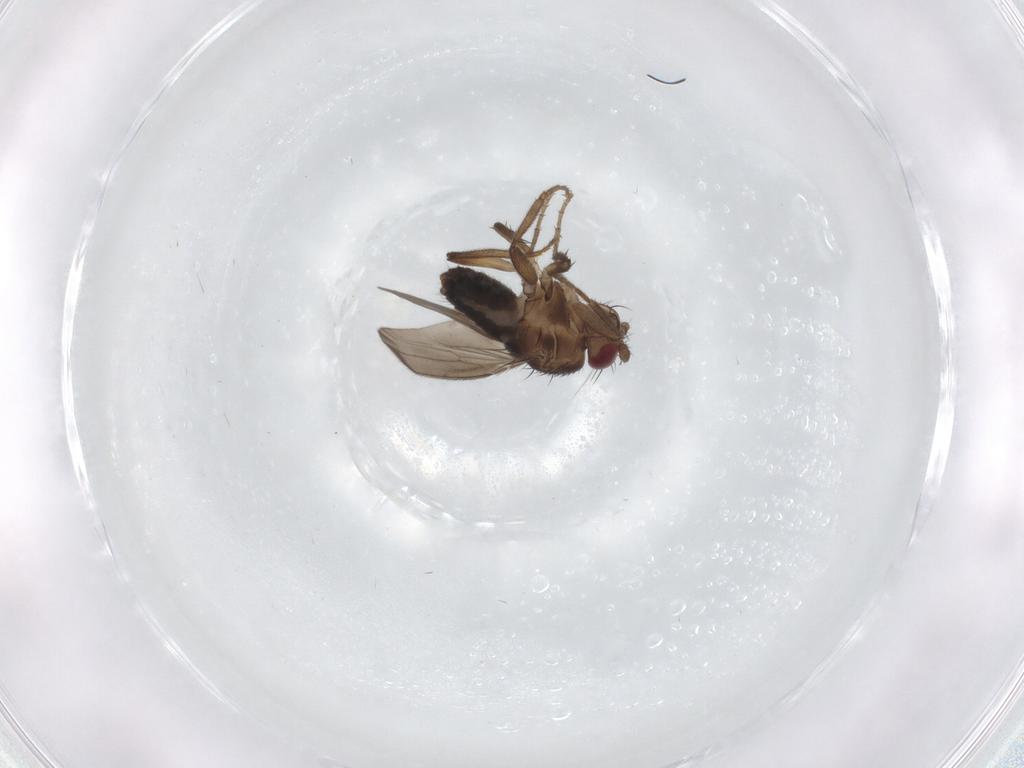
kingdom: Animalia
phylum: Arthropoda
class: Insecta
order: Diptera
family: Sphaeroceridae
